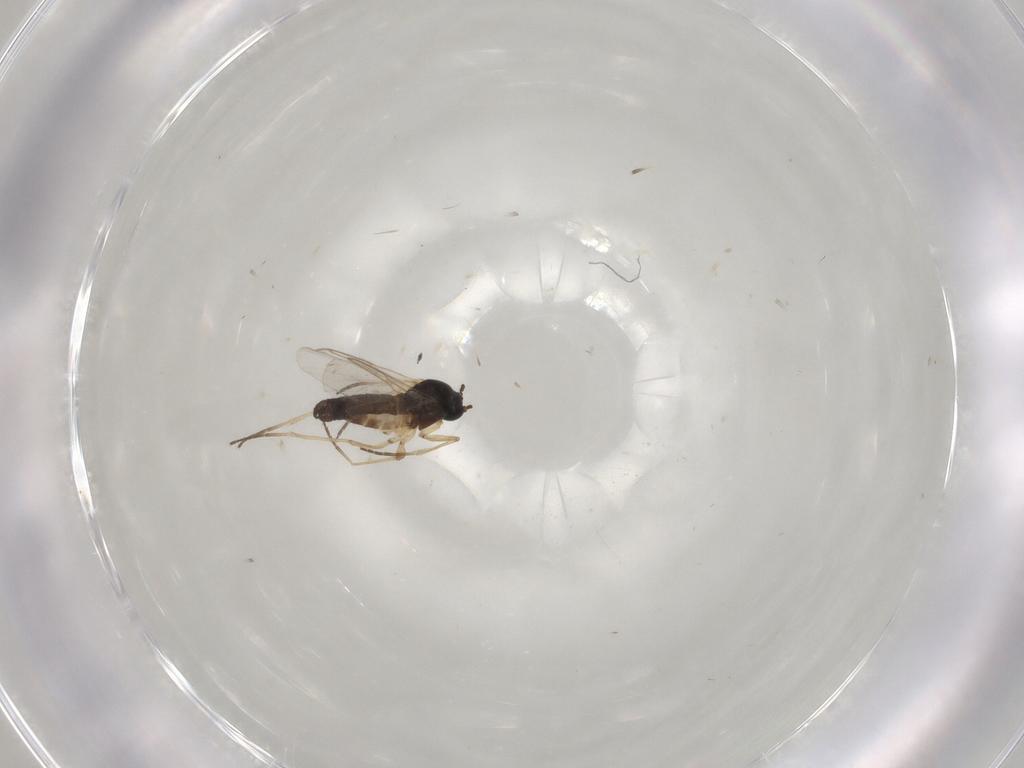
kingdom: Animalia
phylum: Arthropoda
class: Insecta
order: Diptera
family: Sciaridae
